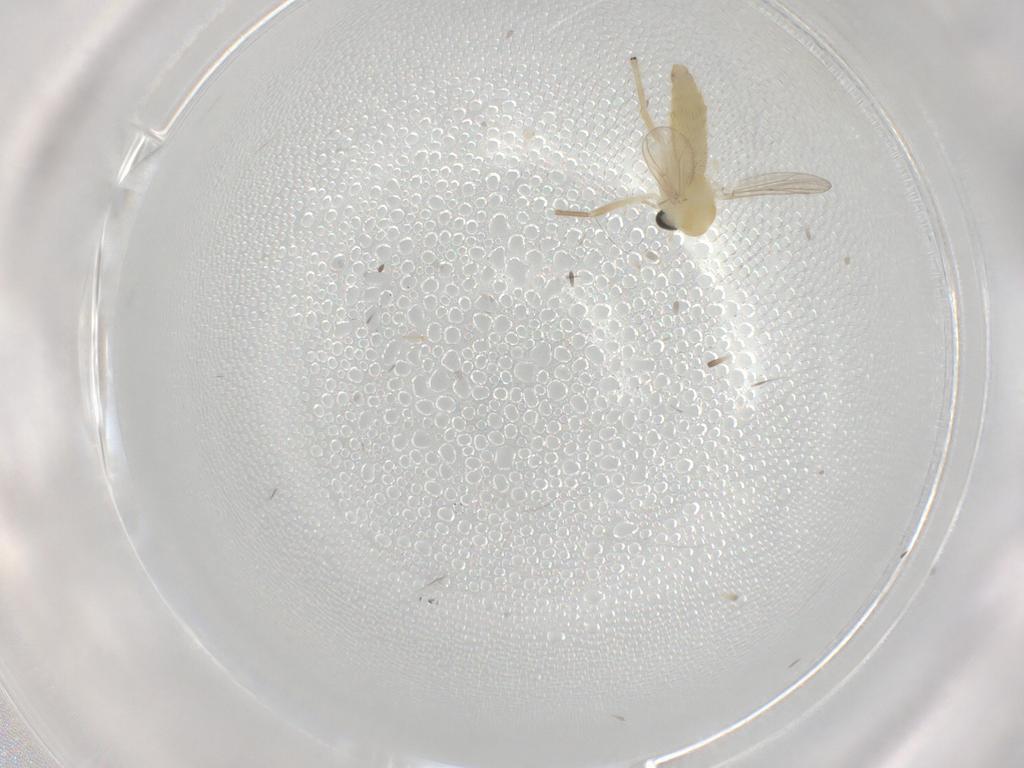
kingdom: Animalia
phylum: Arthropoda
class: Insecta
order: Diptera
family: Chironomidae
